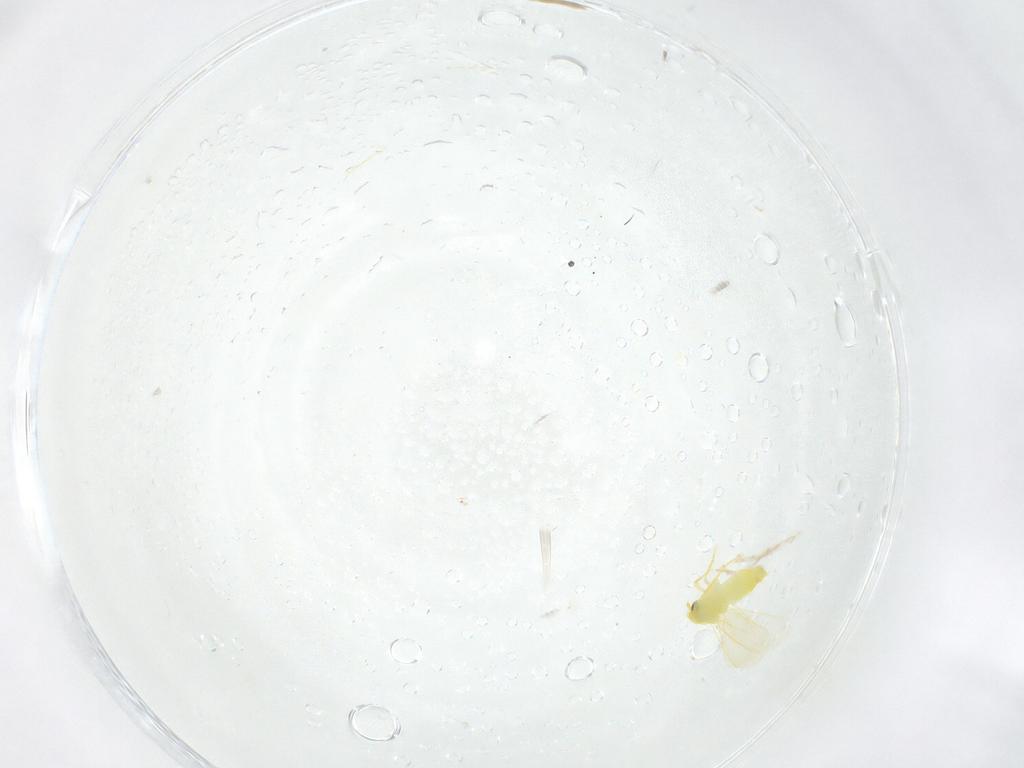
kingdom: Animalia
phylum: Arthropoda
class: Insecta
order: Hemiptera
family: Aleyrodidae
